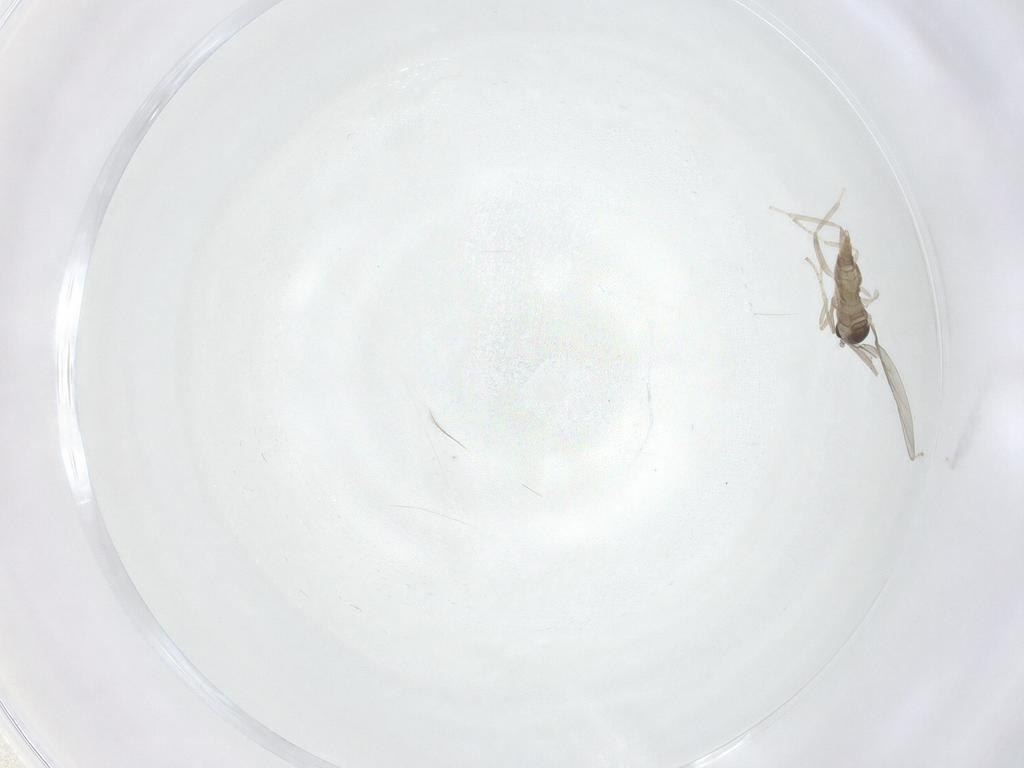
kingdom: Animalia
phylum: Arthropoda
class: Insecta
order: Diptera
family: Cecidomyiidae
